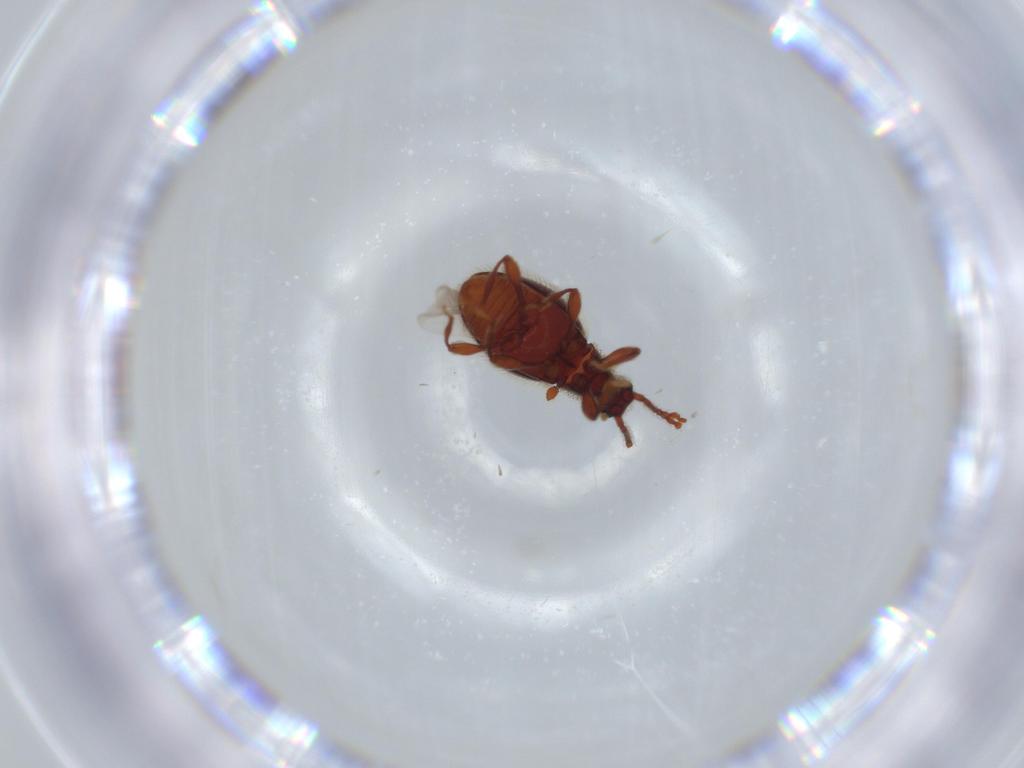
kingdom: Animalia
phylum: Arthropoda
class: Insecta
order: Coleoptera
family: Staphylinidae
